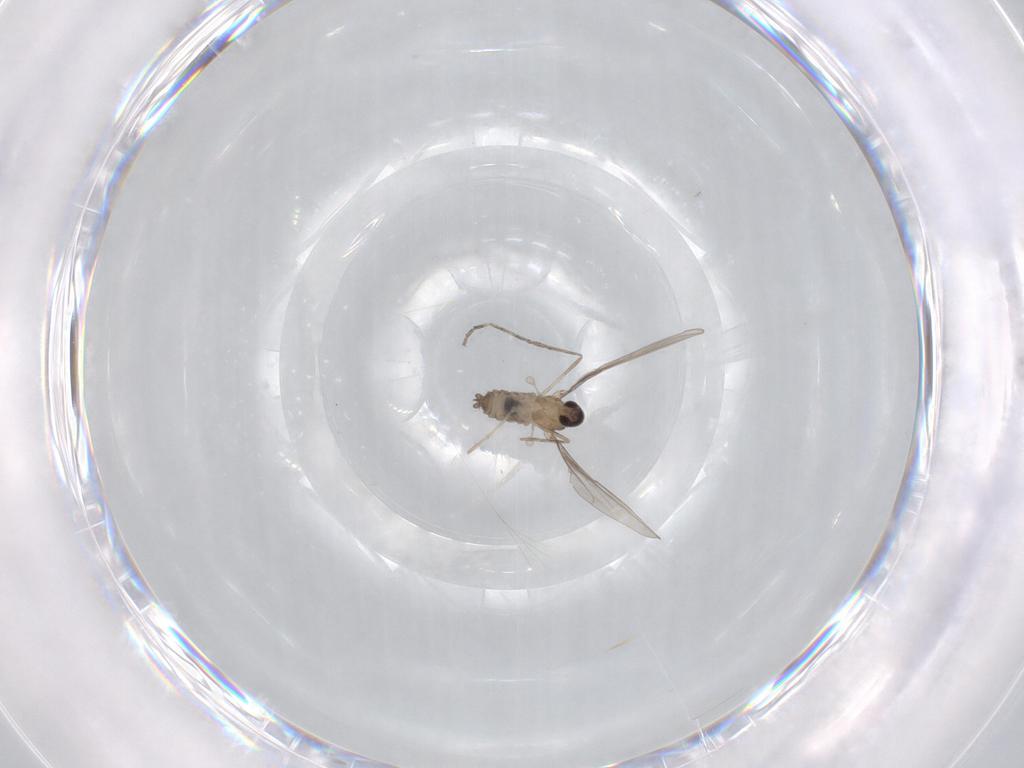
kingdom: Animalia
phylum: Arthropoda
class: Insecta
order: Diptera
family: Cecidomyiidae
